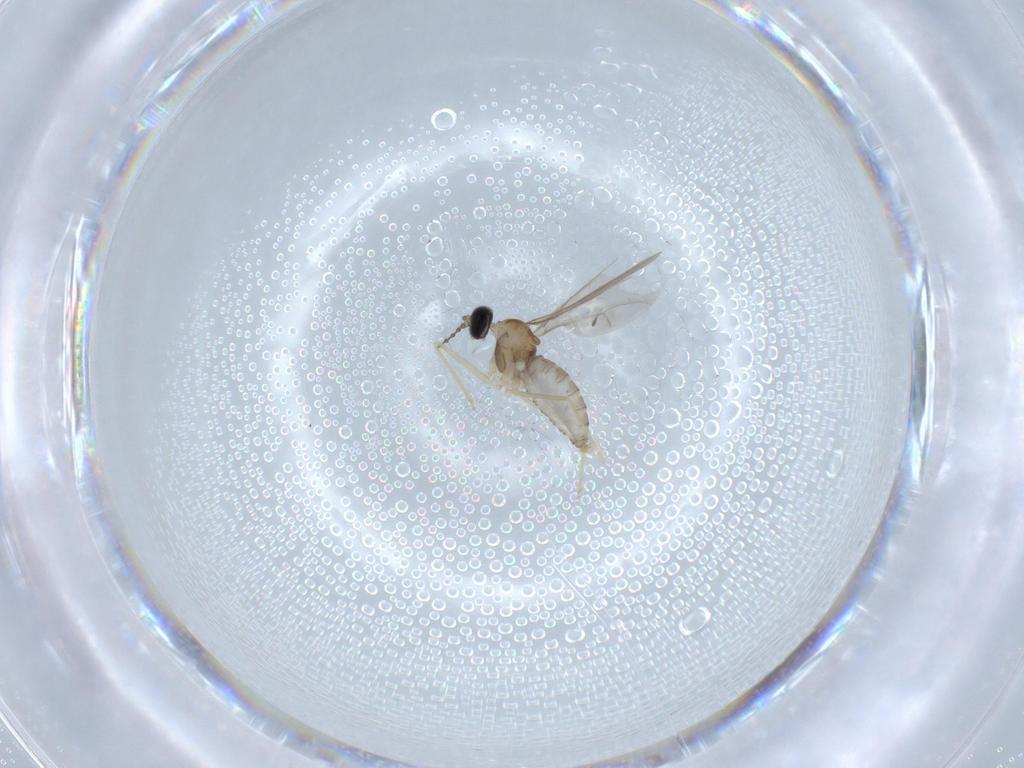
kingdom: Animalia
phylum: Arthropoda
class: Insecta
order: Diptera
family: Cecidomyiidae
